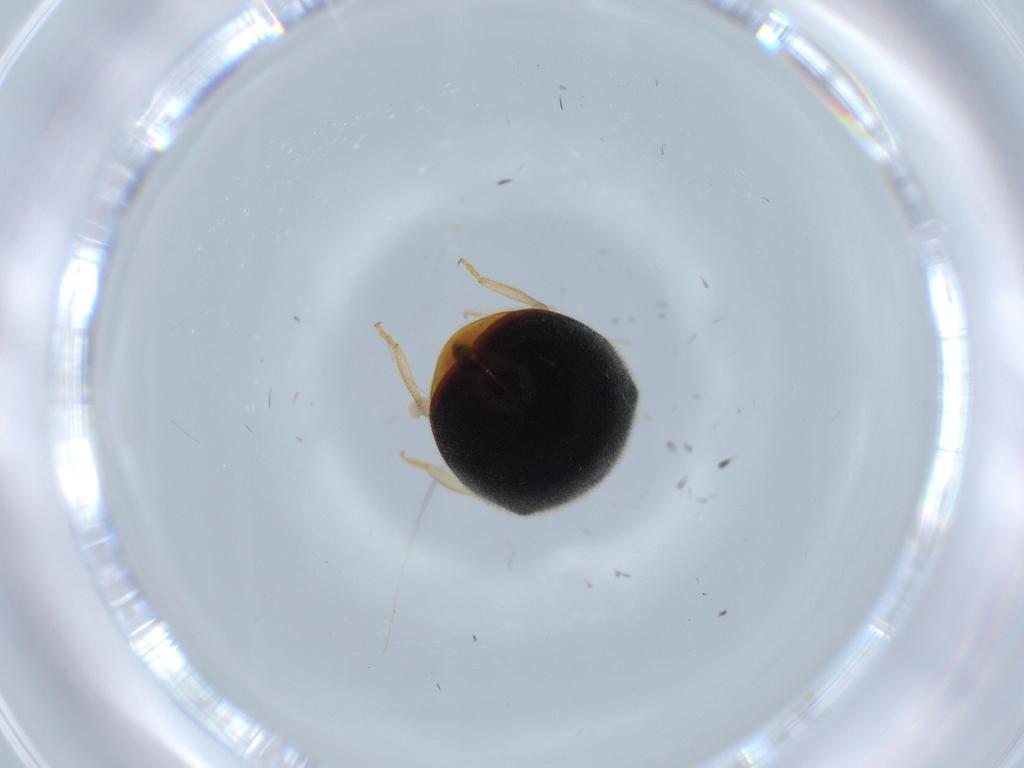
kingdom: Animalia
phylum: Arthropoda
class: Insecta
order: Coleoptera
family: Coccinellidae
